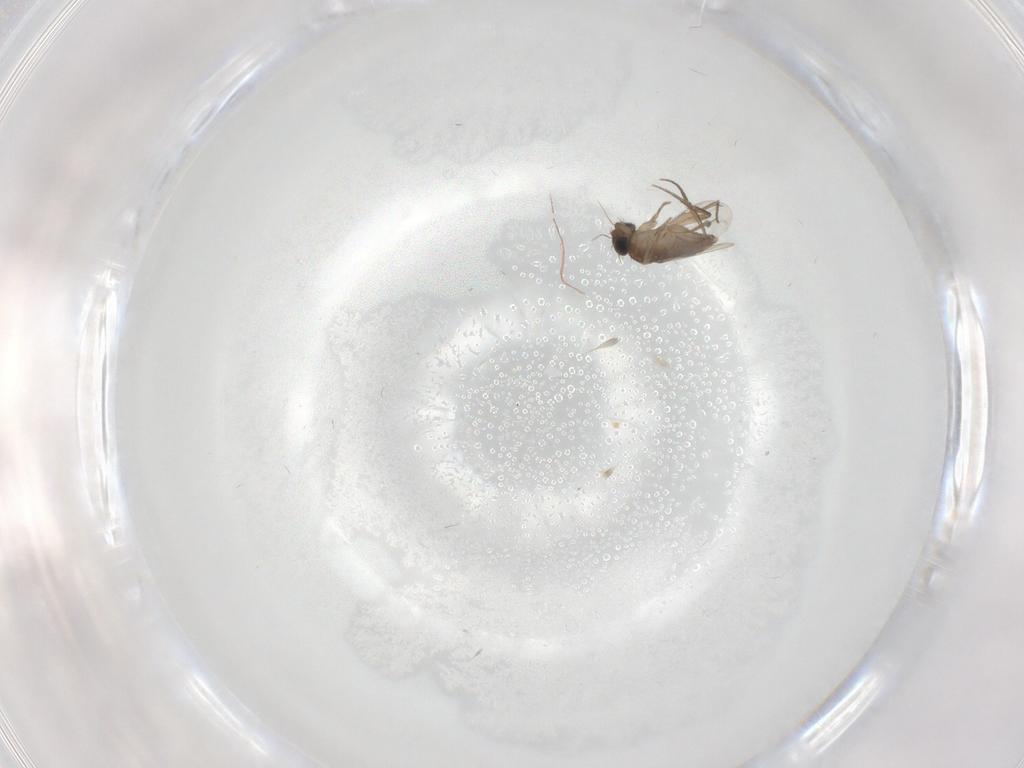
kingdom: Animalia
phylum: Arthropoda
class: Insecta
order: Diptera
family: Phoridae
